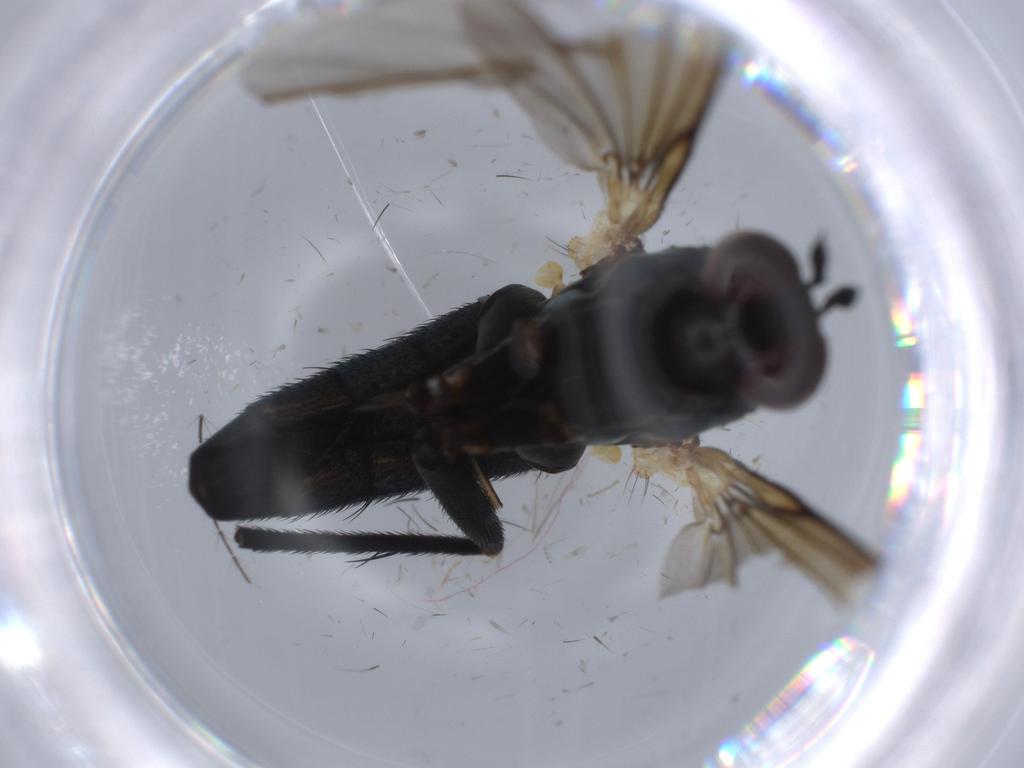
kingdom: Animalia
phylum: Arthropoda
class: Insecta
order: Diptera
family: Dolichopodidae
